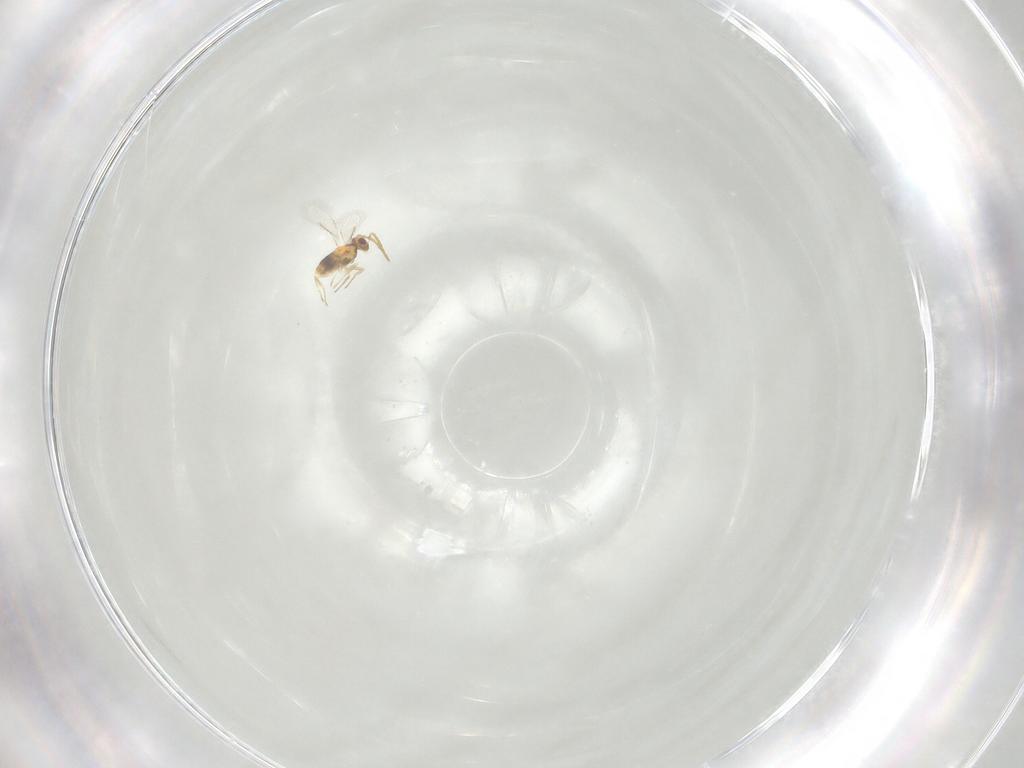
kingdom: Animalia
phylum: Arthropoda
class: Insecta
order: Hymenoptera
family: Aphelinidae
